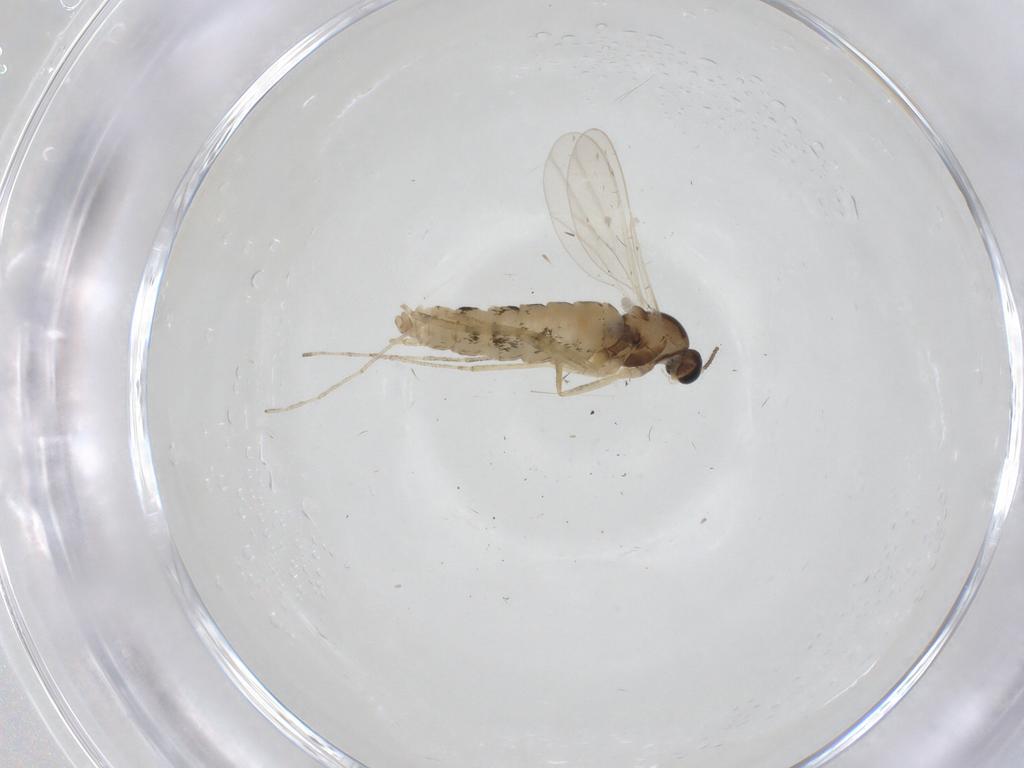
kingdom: Animalia
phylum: Arthropoda
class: Insecta
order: Diptera
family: Cecidomyiidae
